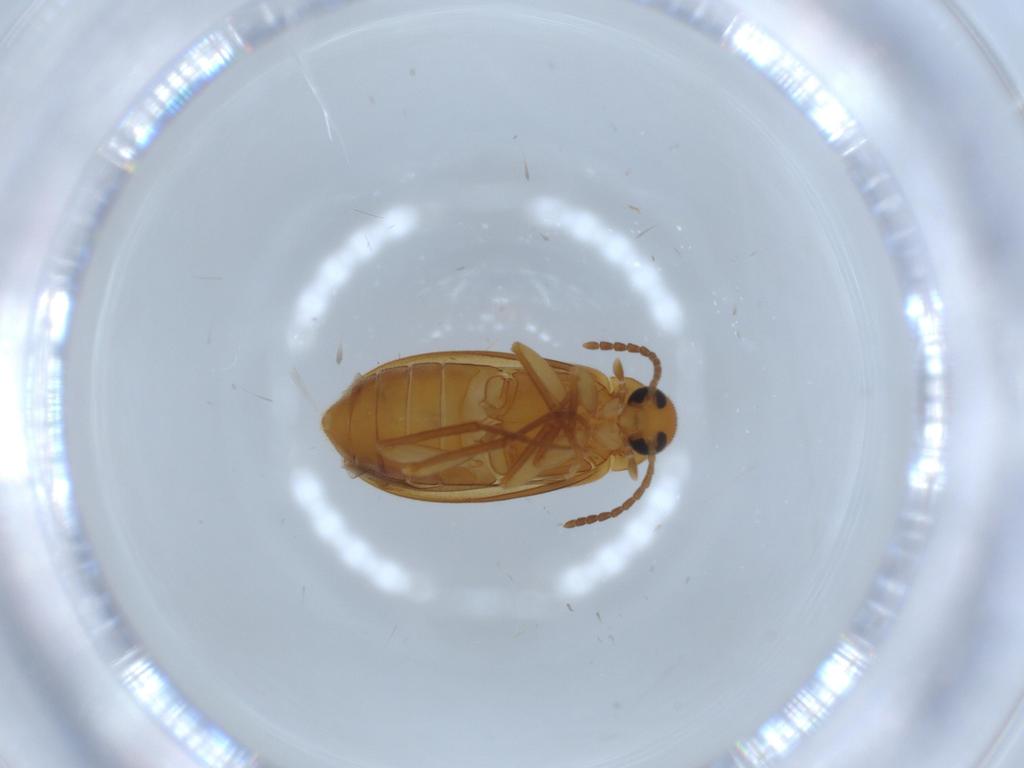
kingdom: Animalia
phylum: Arthropoda
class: Insecta
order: Coleoptera
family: Scraptiidae
